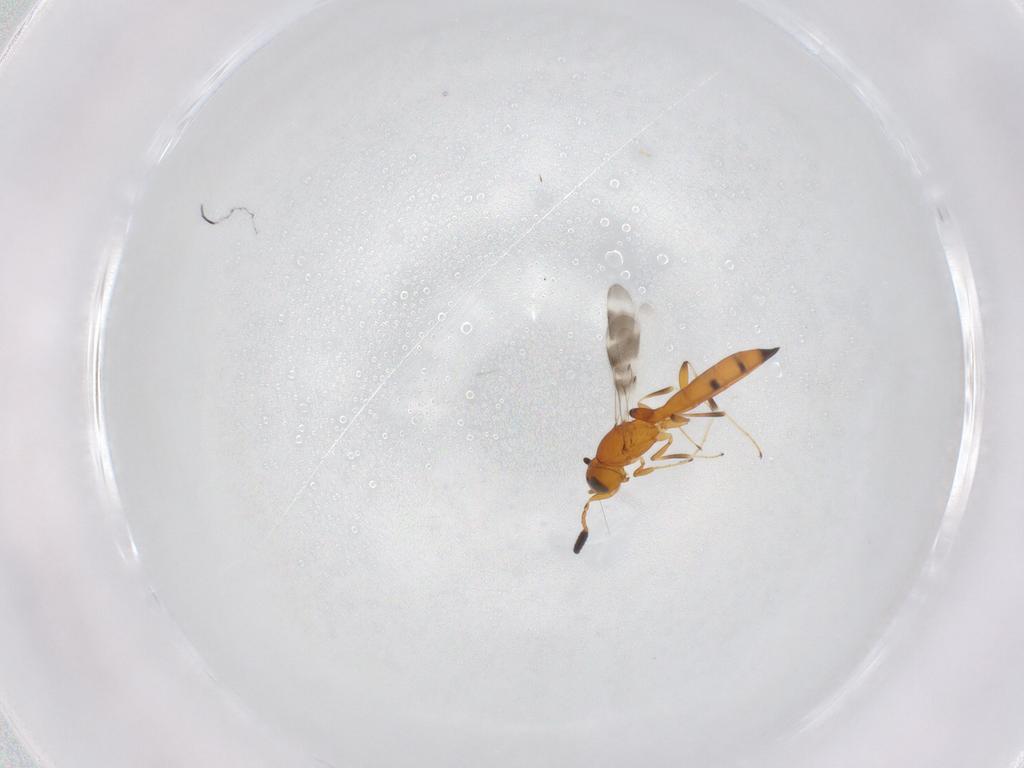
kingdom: Animalia
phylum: Arthropoda
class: Insecta
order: Hymenoptera
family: Scelionidae
